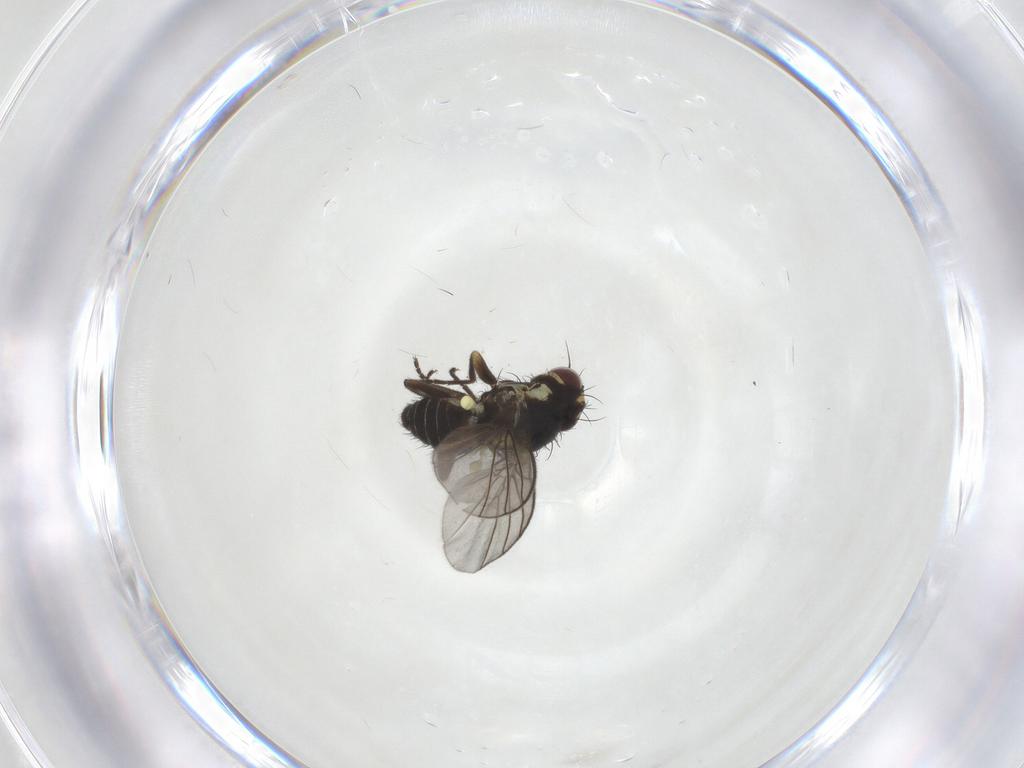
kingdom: Animalia
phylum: Arthropoda
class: Insecta
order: Diptera
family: Agromyzidae
